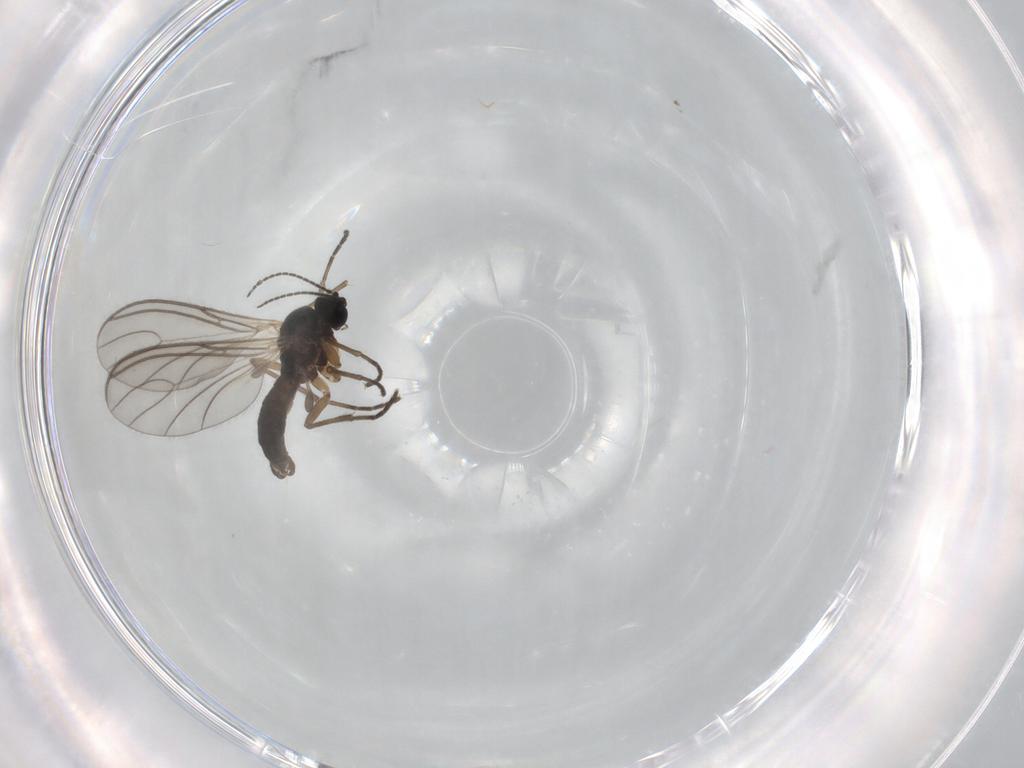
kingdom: Animalia
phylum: Arthropoda
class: Insecta
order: Diptera
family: Sciaridae
